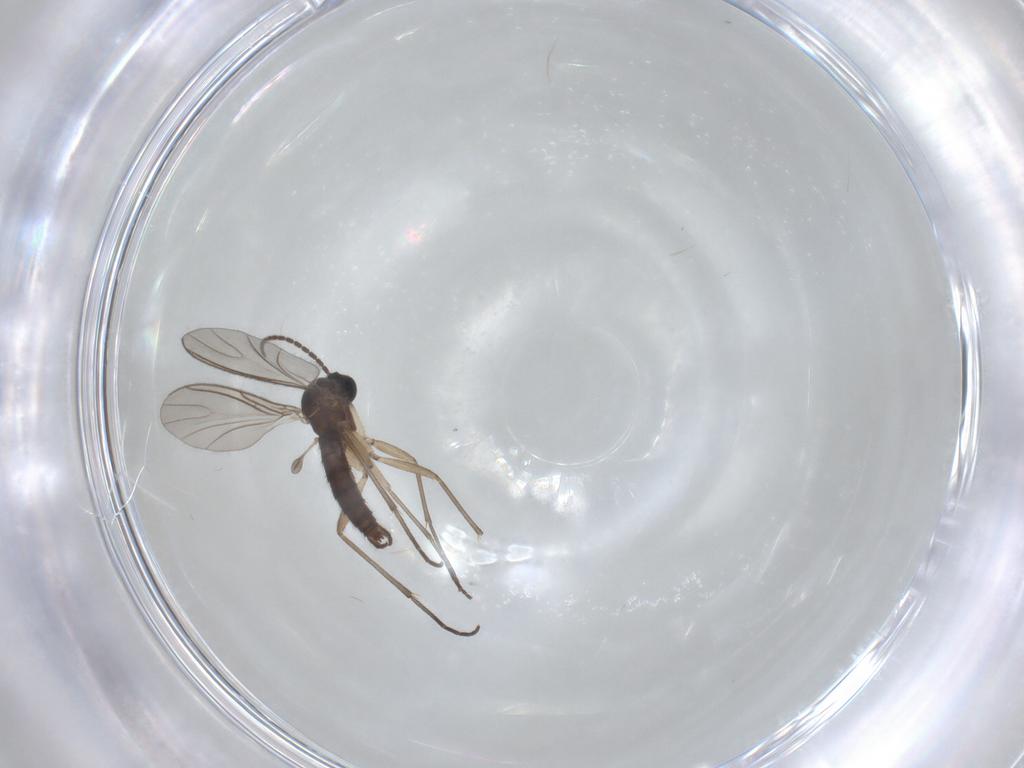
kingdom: Animalia
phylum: Arthropoda
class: Insecta
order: Diptera
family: Sciaridae
